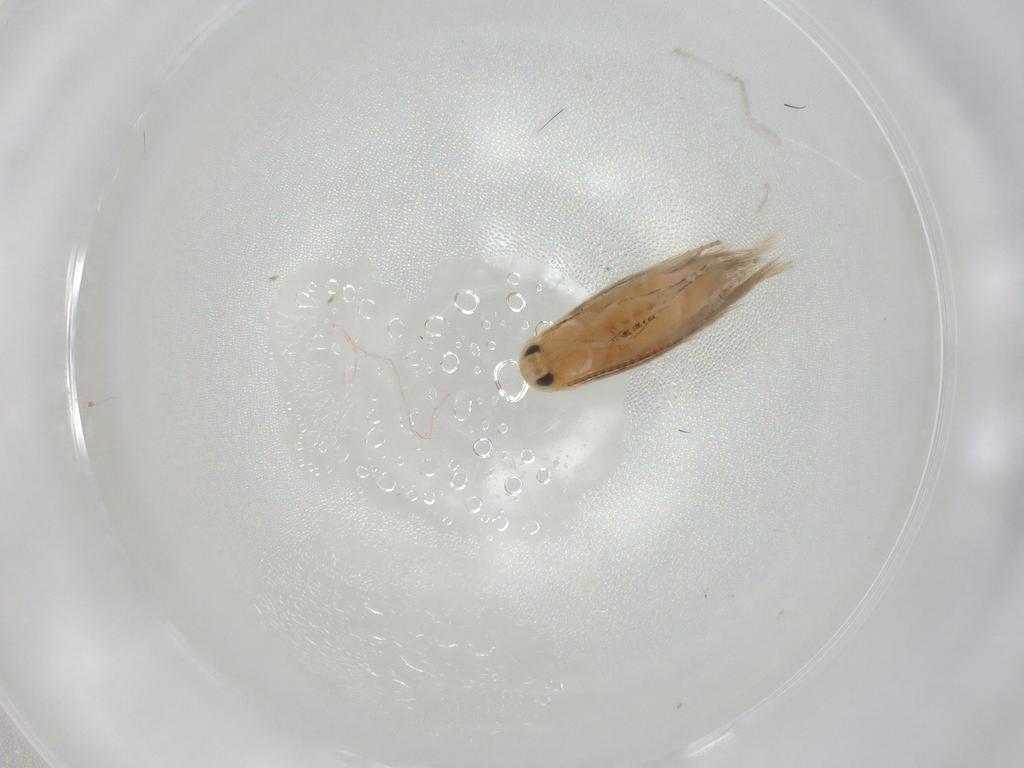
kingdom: Animalia
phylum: Arthropoda
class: Insecta
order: Lepidoptera
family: Bucculatricidae
